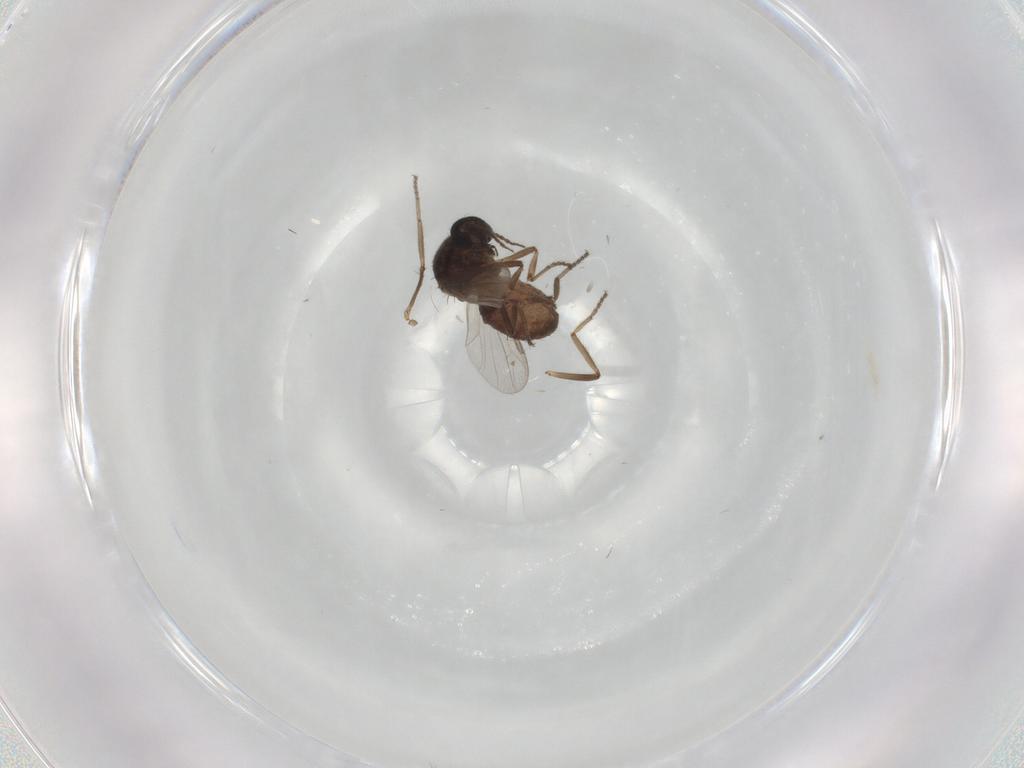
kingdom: Animalia
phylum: Arthropoda
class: Insecta
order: Diptera
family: Ceratopogonidae
